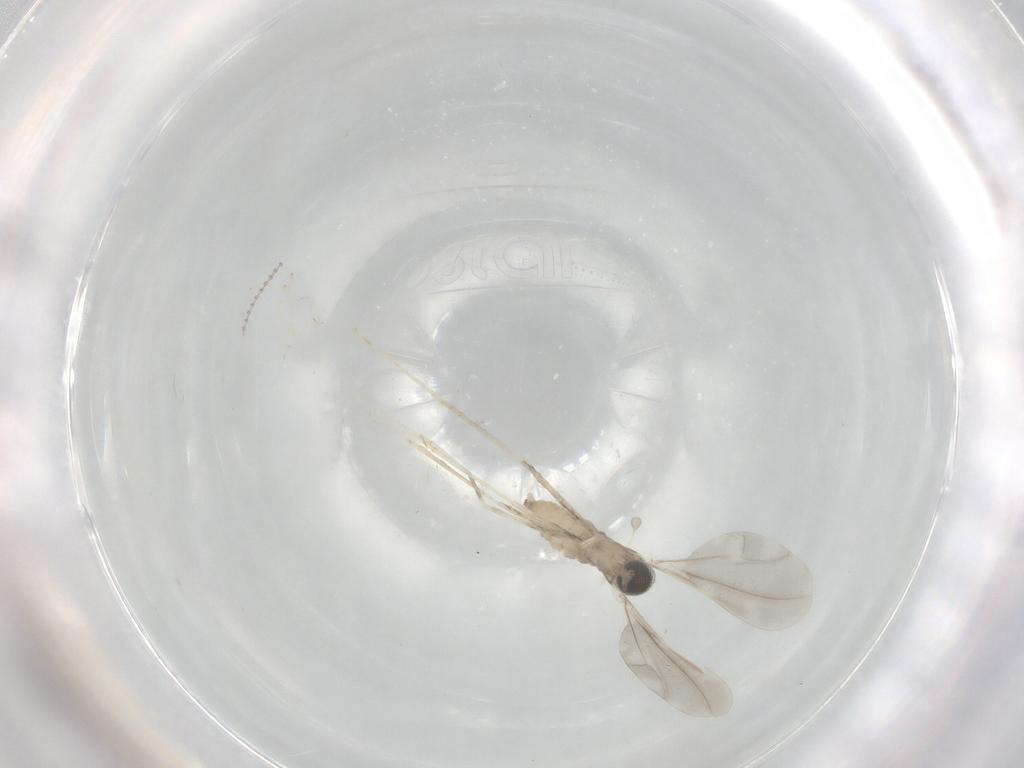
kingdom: Animalia
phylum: Arthropoda
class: Insecta
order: Diptera
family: Cecidomyiidae
